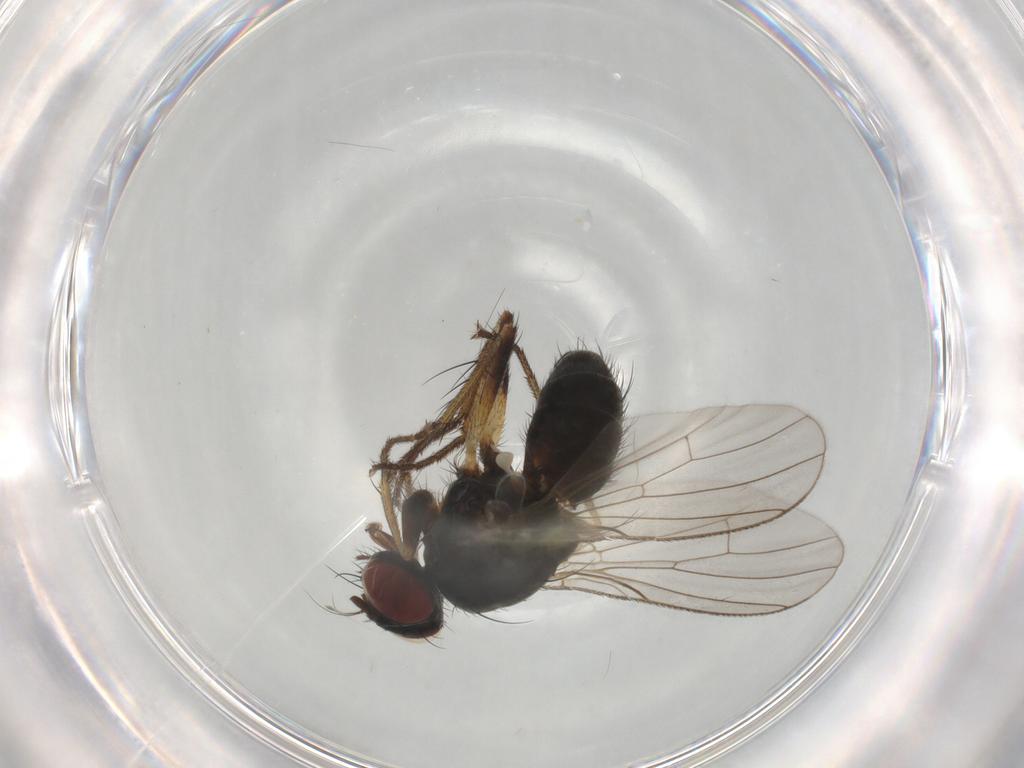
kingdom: Animalia
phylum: Arthropoda
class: Insecta
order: Diptera
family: Muscidae
